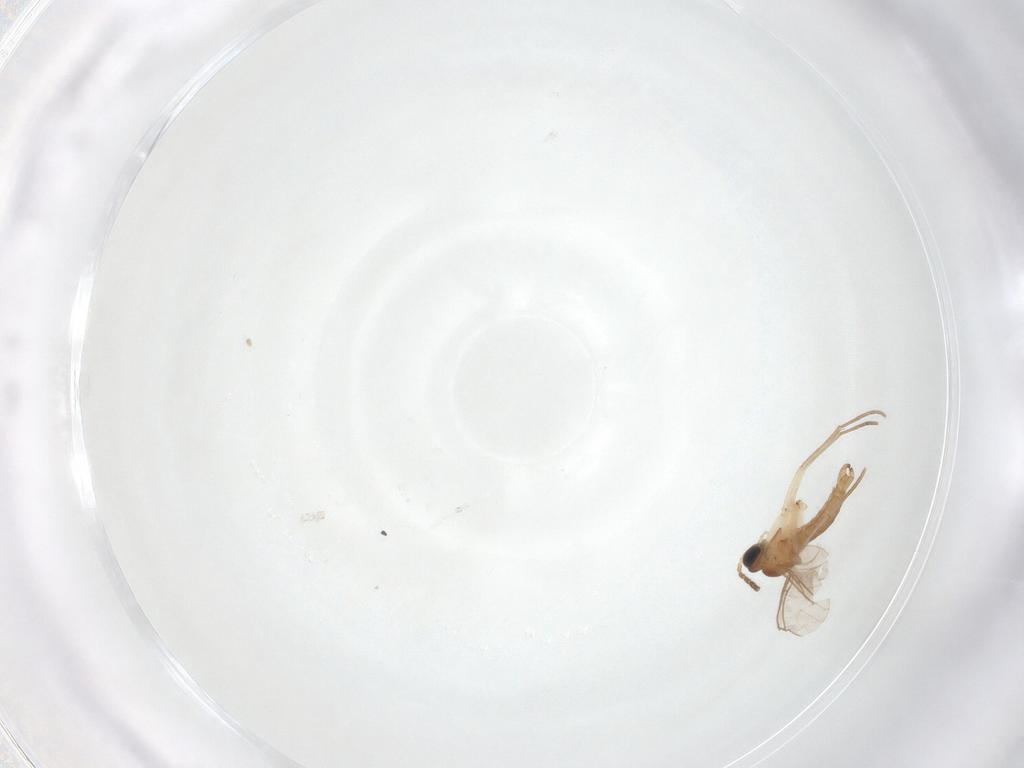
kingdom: Animalia
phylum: Arthropoda
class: Insecta
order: Diptera
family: Sciaridae
